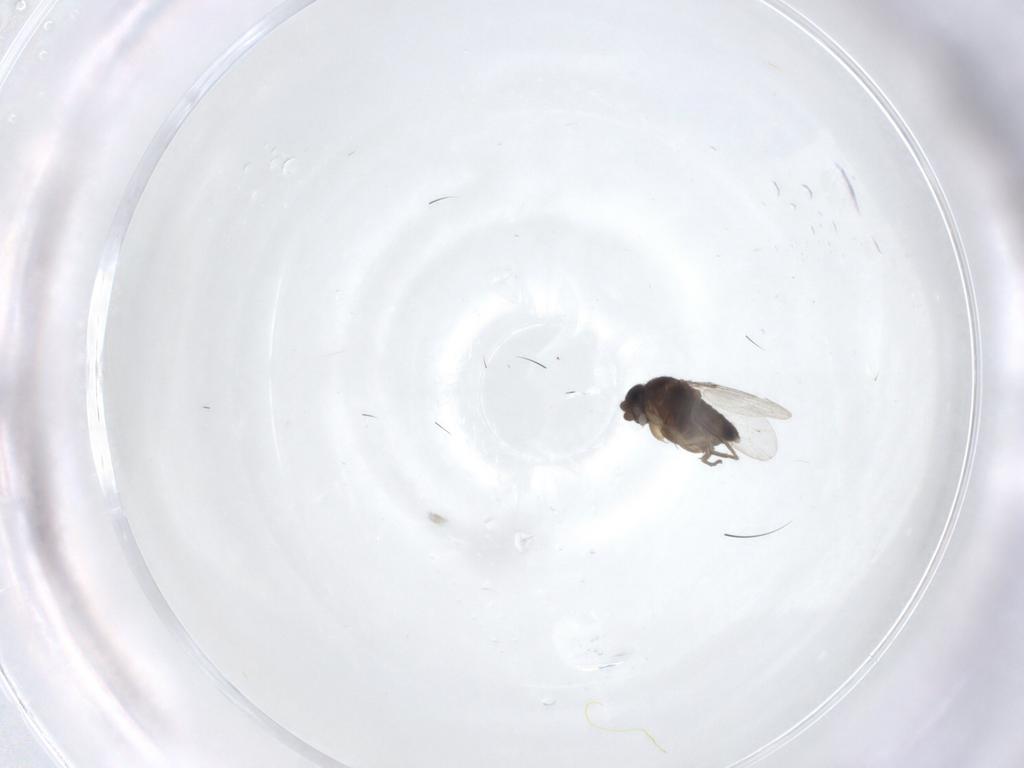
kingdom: Animalia
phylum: Arthropoda
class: Insecta
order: Diptera
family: Phoridae
